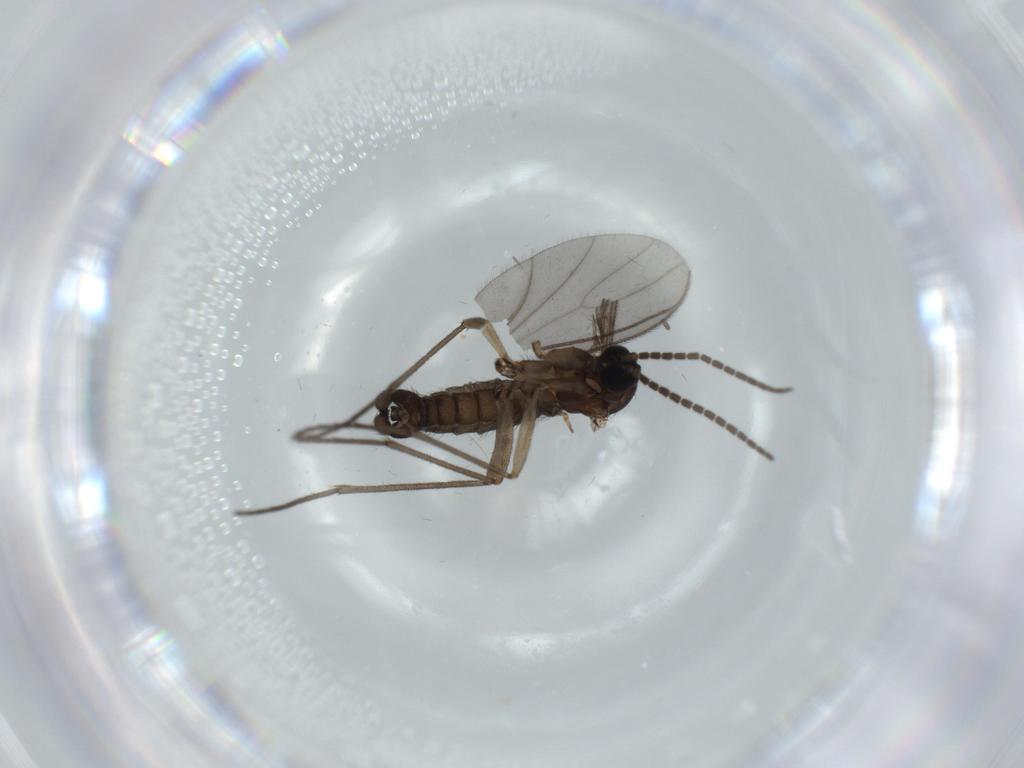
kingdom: Animalia
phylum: Arthropoda
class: Insecta
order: Diptera
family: Sciaridae
